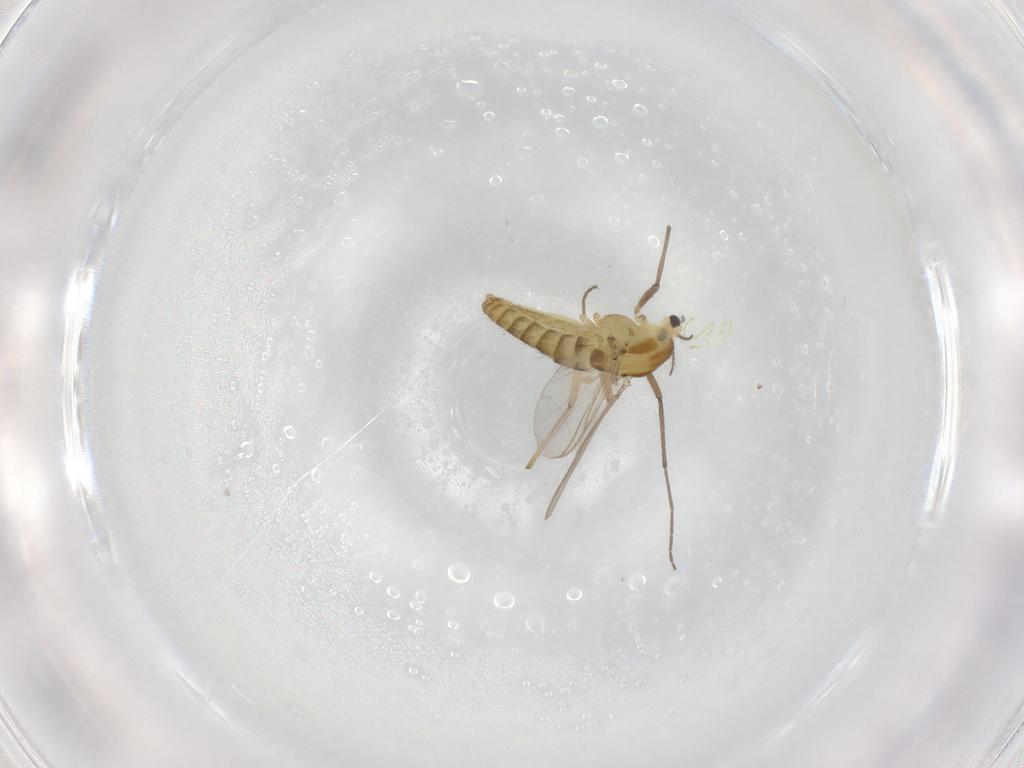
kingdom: Animalia
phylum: Arthropoda
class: Insecta
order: Diptera
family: Chironomidae
